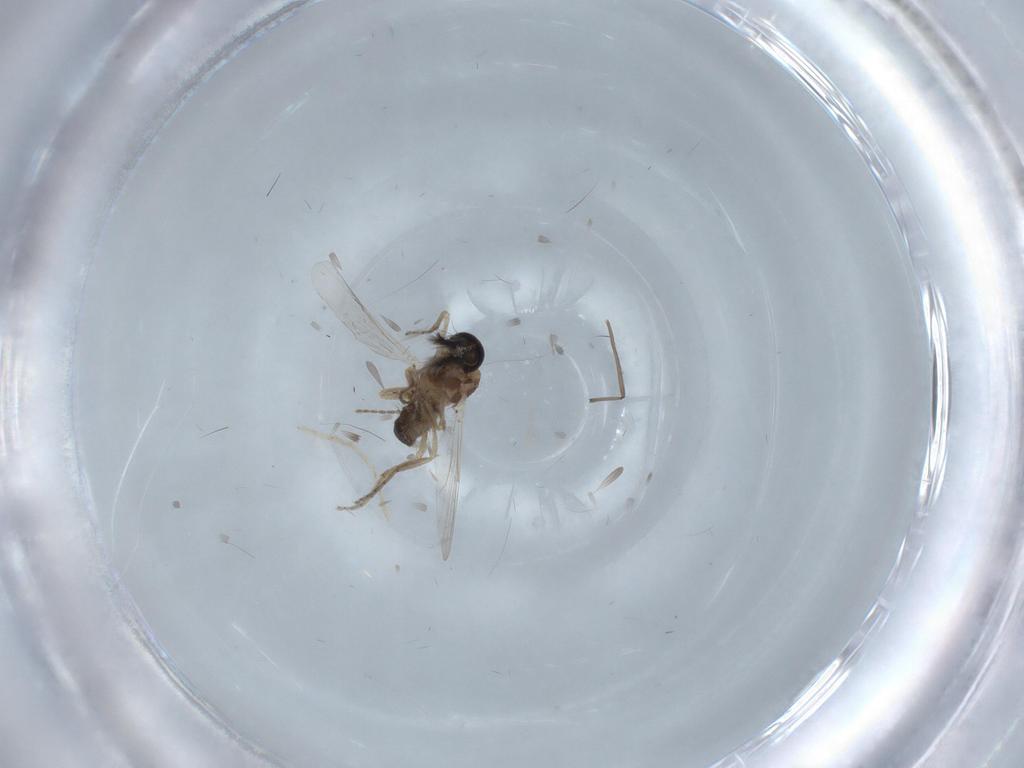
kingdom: Animalia
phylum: Arthropoda
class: Insecta
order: Diptera
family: Ceratopogonidae
